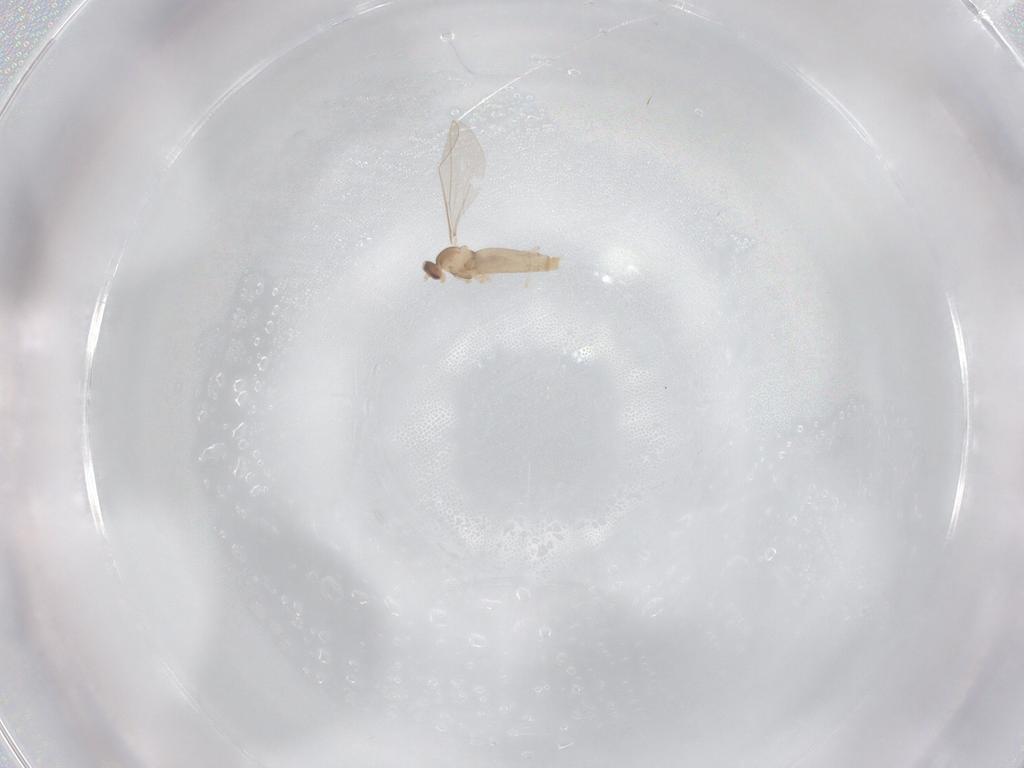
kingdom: Animalia
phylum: Arthropoda
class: Insecta
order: Diptera
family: Cecidomyiidae
